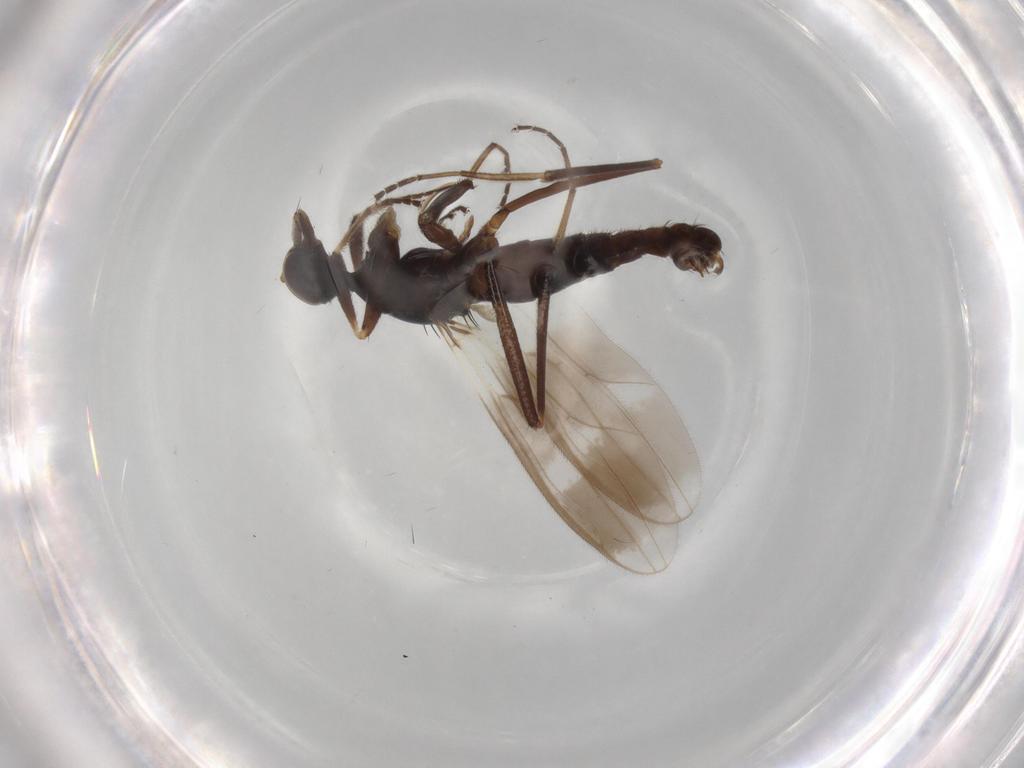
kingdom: Animalia
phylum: Arthropoda
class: Insecta
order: Diptera
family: Hybotidae
